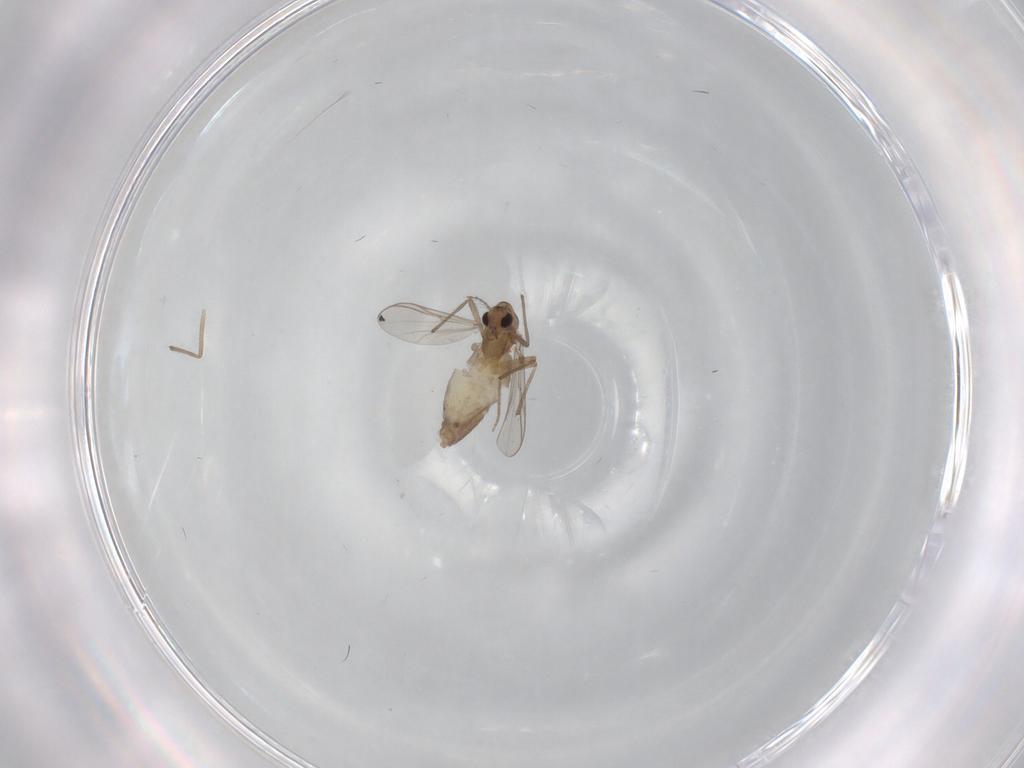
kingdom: Animalia
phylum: Arthropoda
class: Insecta
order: Diptera
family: Chironomidae
